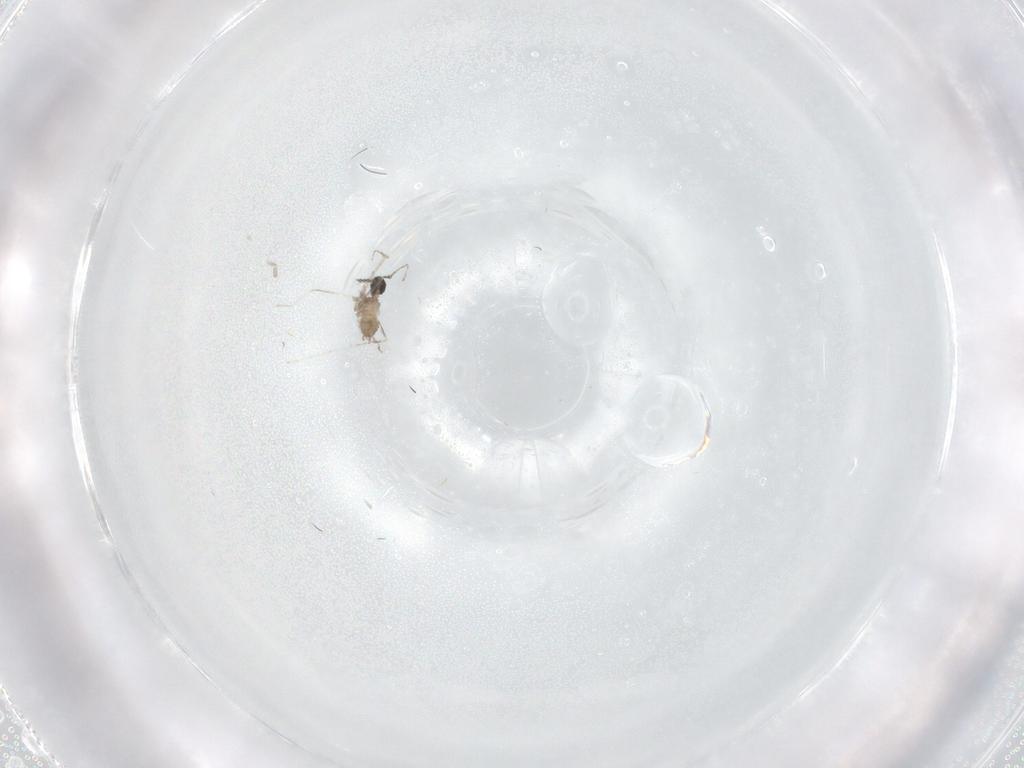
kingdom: Animalia
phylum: Arthropoda
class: Insecta
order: Diptera
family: Cecidomyiidae
